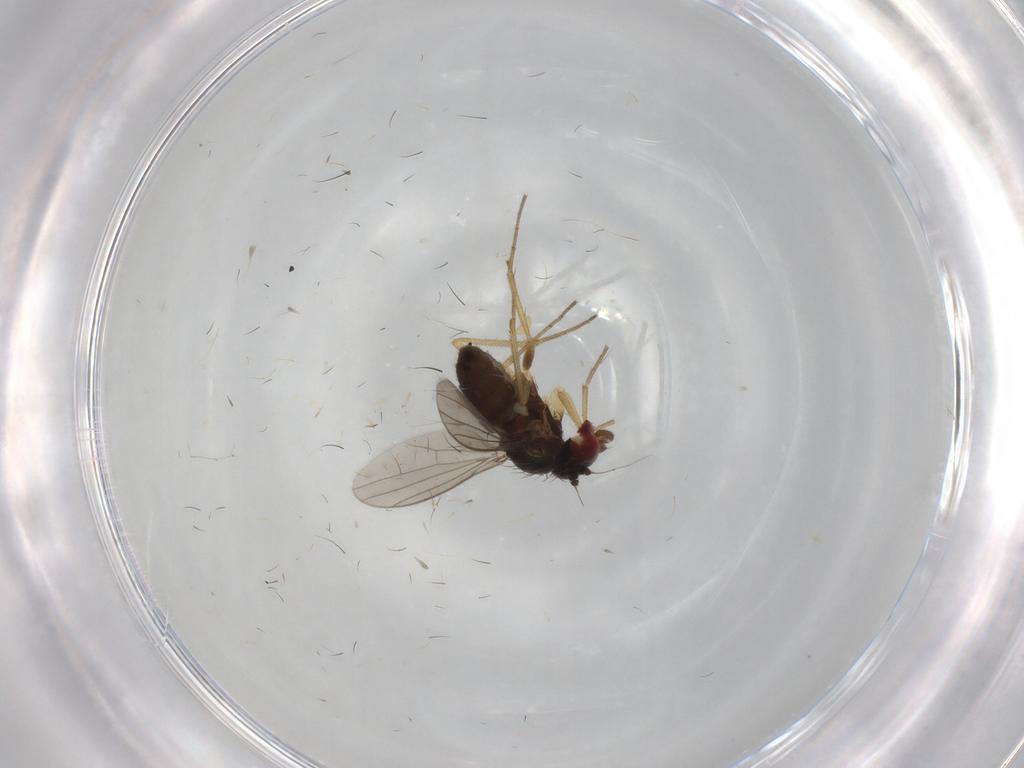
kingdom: Animalia
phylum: Arthropoda
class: Insecta
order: Diptera
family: Dolichopodidae
